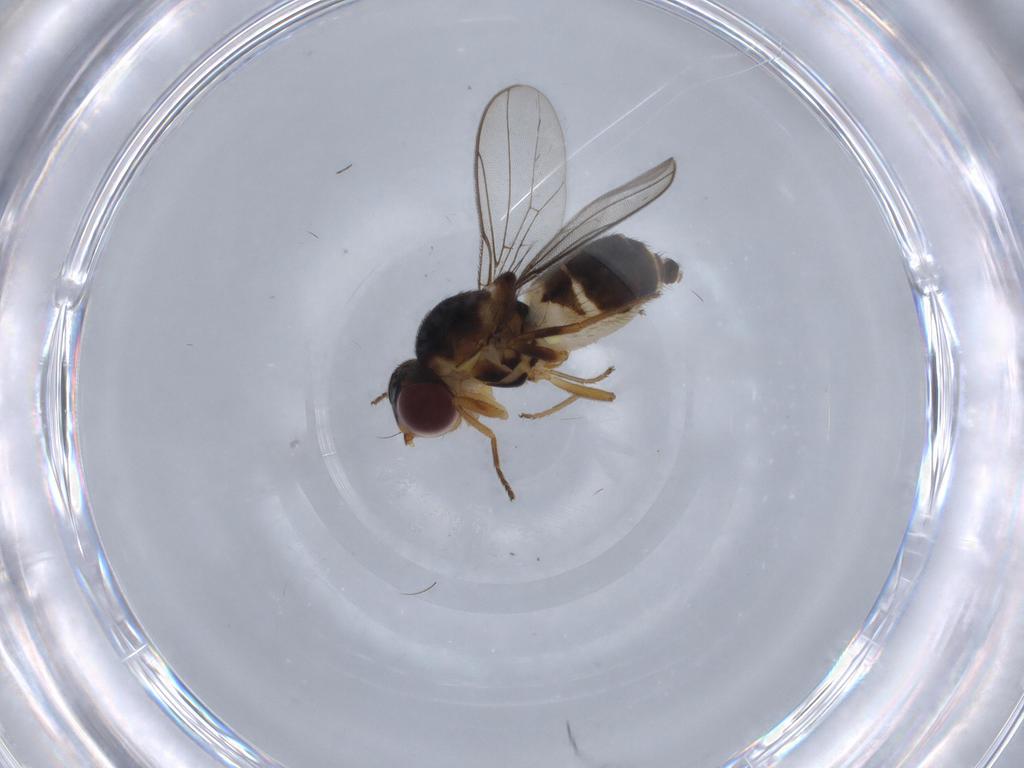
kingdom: Animalia
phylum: Arthropoda
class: Insecta
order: Diptera
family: Chloropidae
